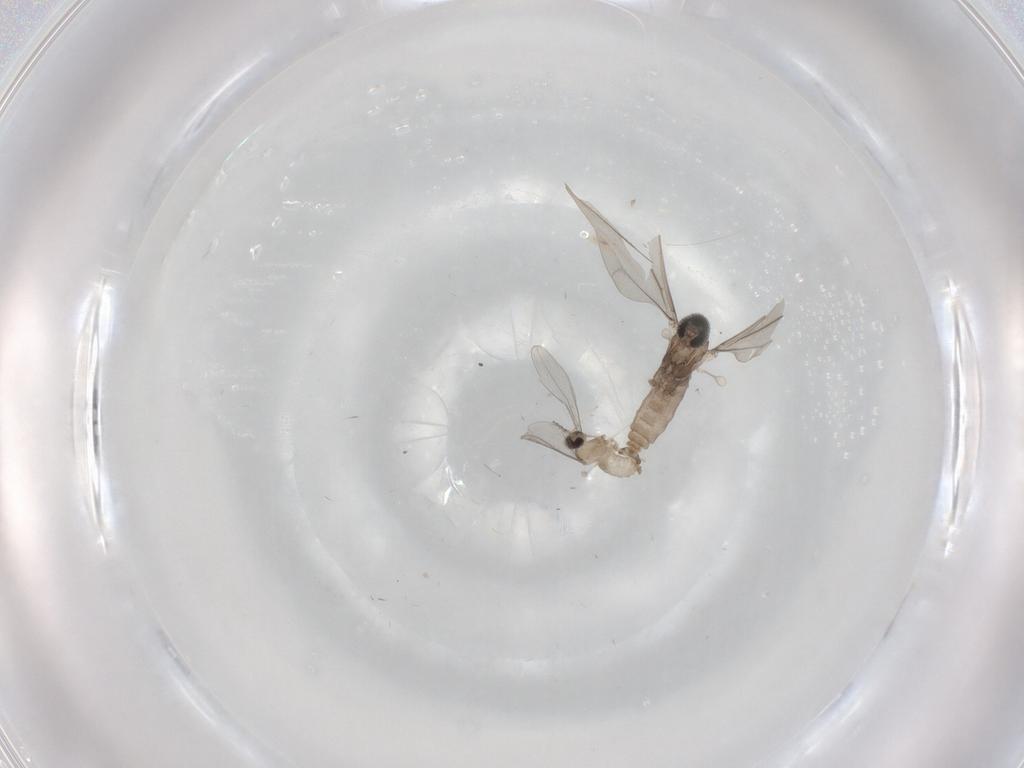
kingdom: Animalia
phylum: Arthropoda
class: Insecta
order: Diptera
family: Cecidomyiidae
